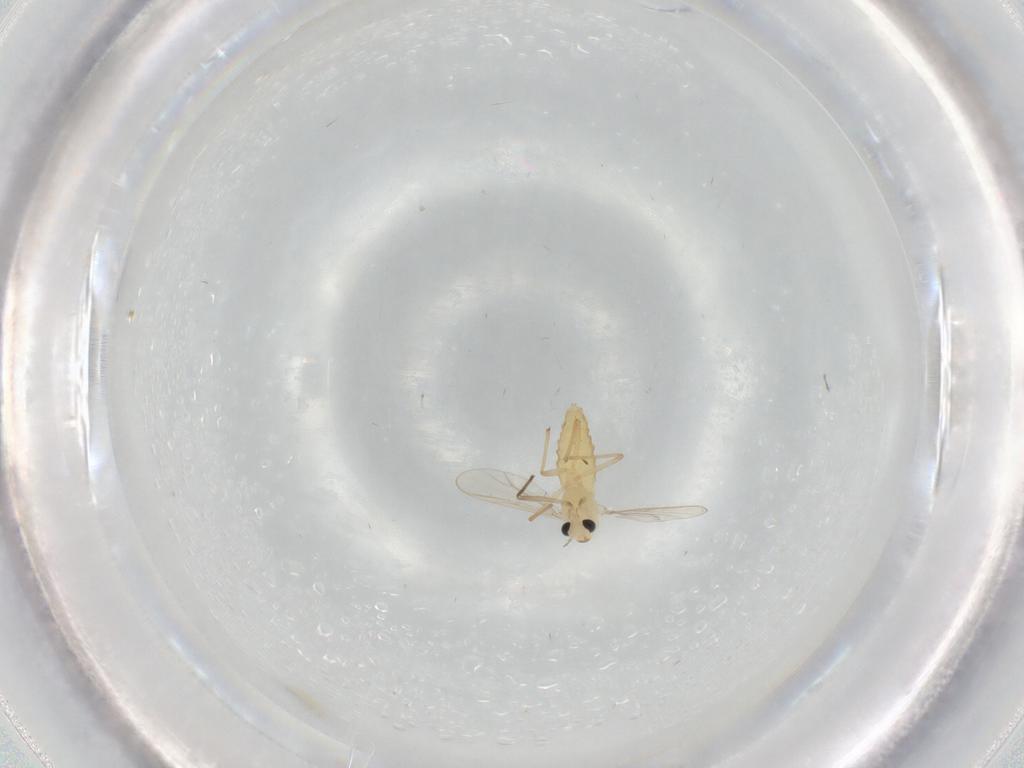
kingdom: Animalia
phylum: Arthropoda
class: Insecta
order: Diptera
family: Chironomidae
